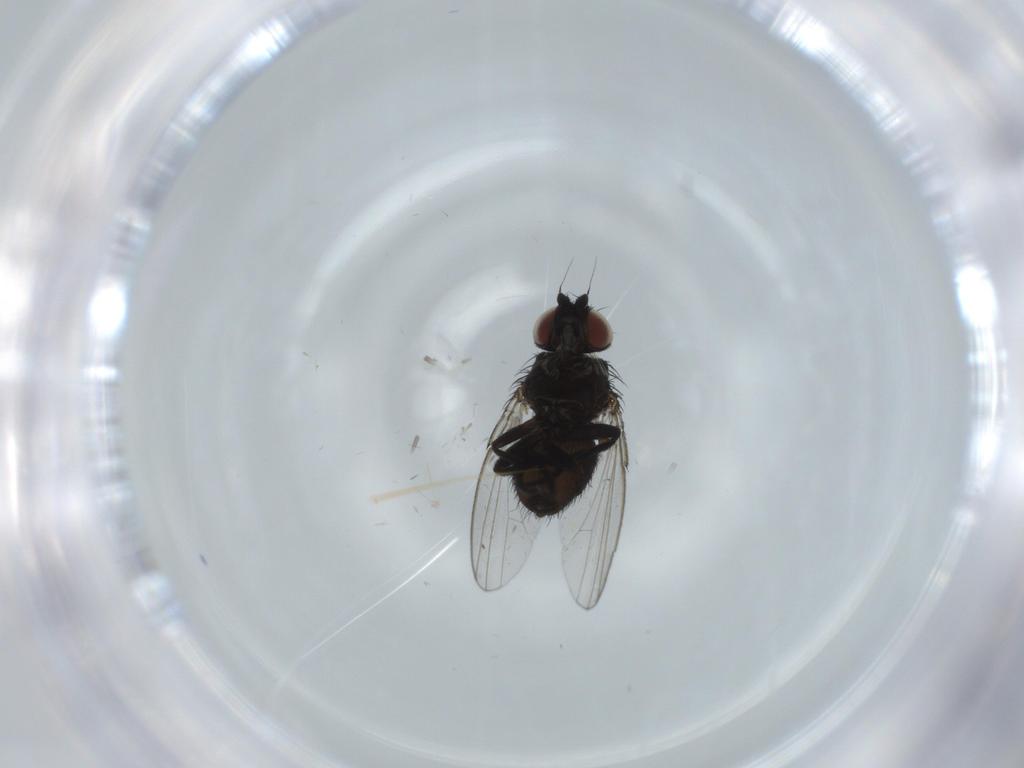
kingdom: Animalia
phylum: Arthropoda
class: Insecta
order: Diptera
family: Milichiidae
